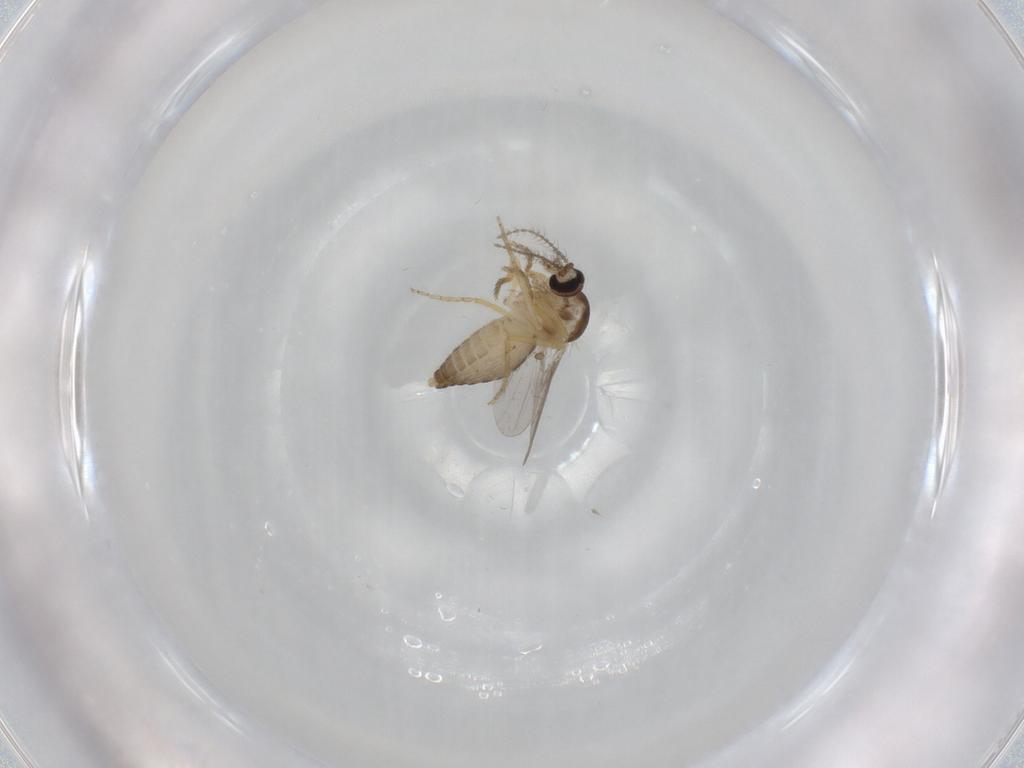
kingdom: Animalia
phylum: Arthropoda
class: Insecta
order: Diptera
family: Ceratopogonidae
